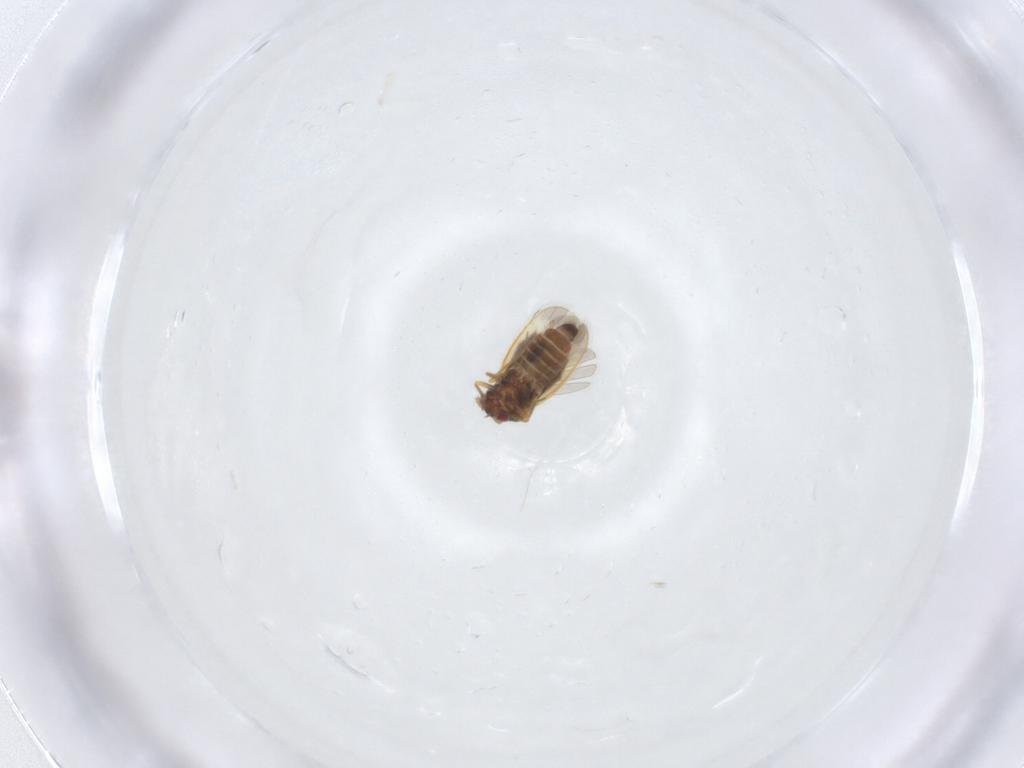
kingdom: Animalia
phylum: Arthropoda
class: Insecta
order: Hemiptera
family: Schizopteridae
